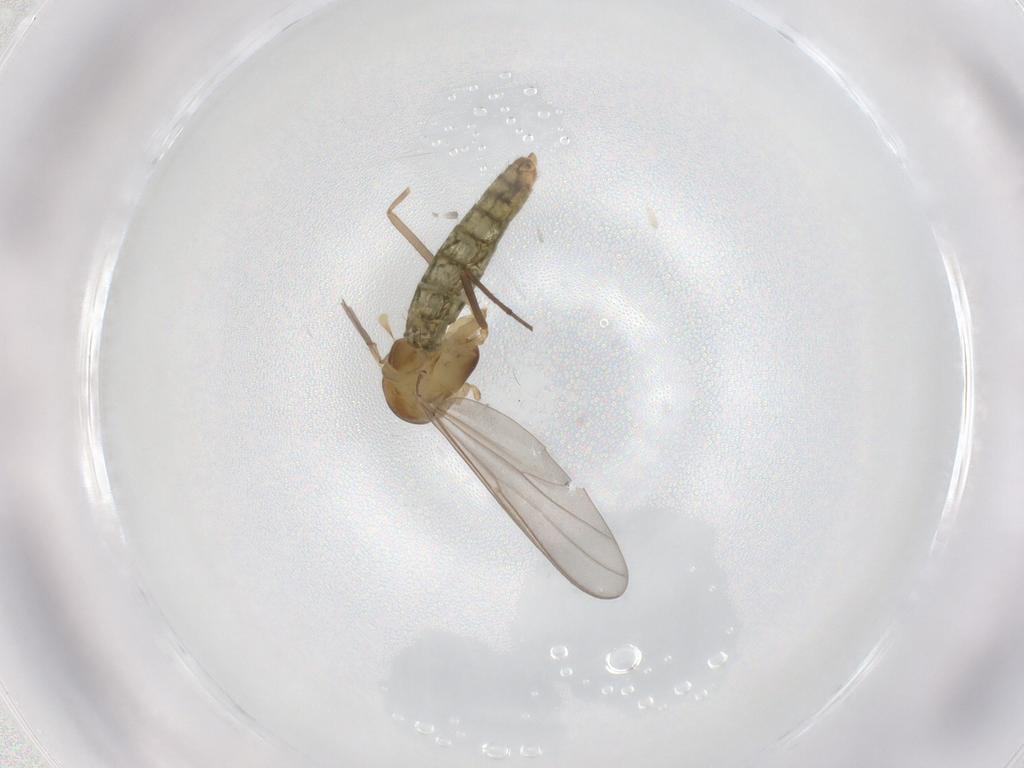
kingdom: Animalia
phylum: Arthropoda
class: Insecta
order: Diptera
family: Chironomidae
